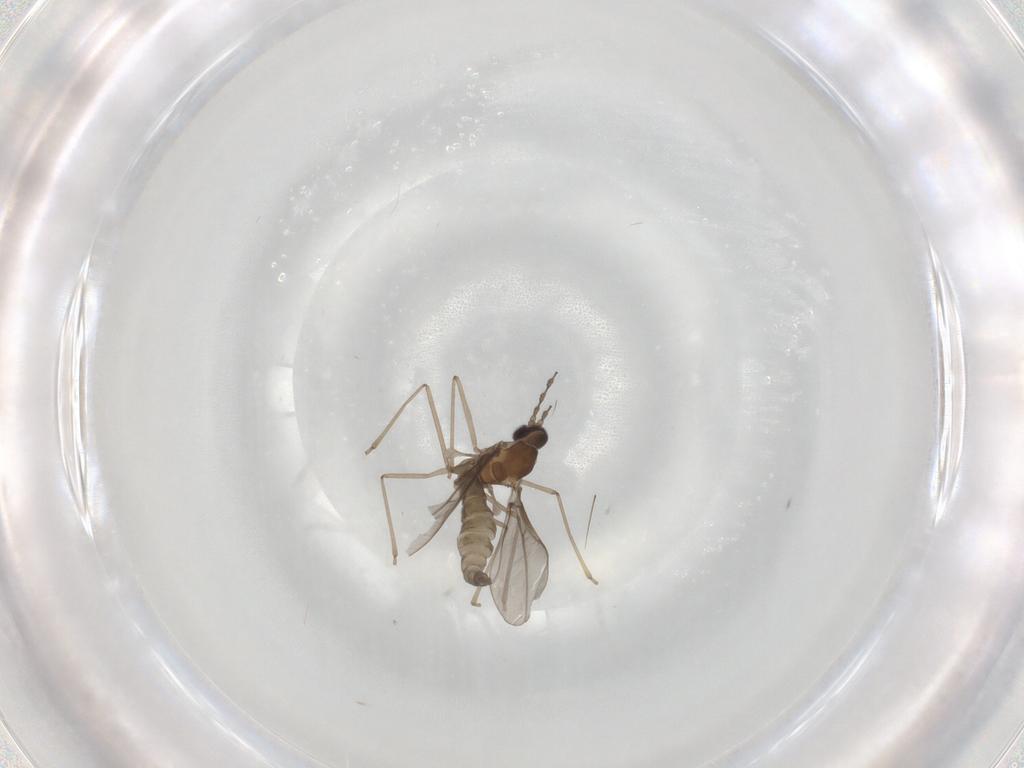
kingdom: Animalia
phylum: Arthropoda
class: Insecta
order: Diptera
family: Cecidomyiidae
